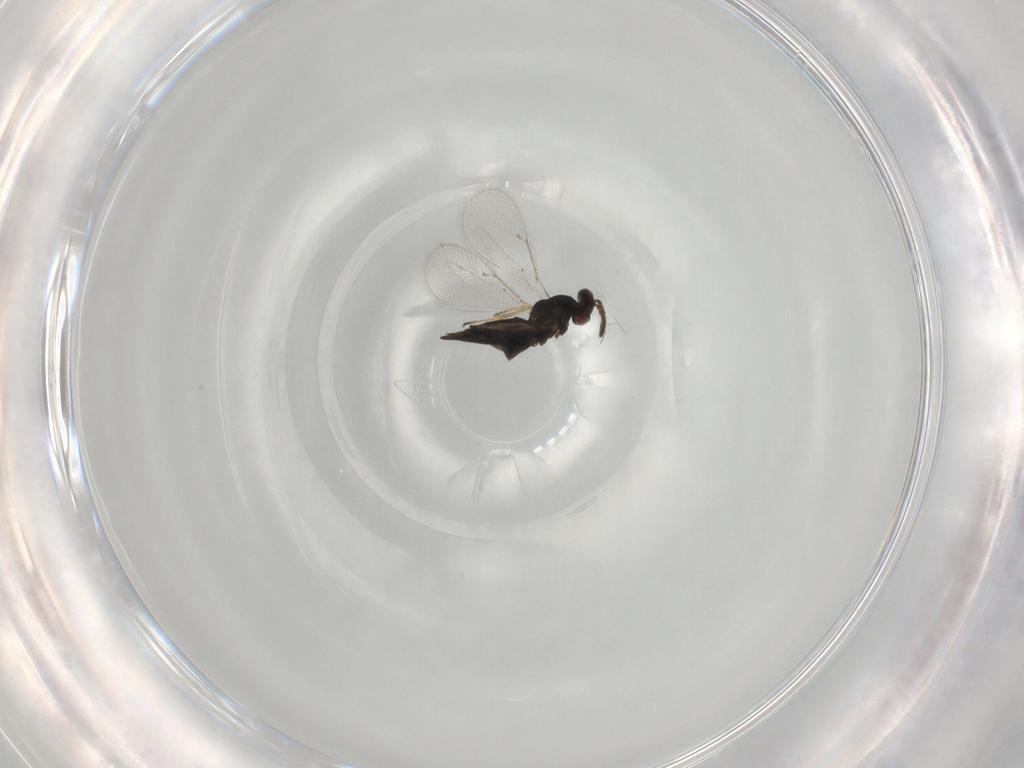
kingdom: Animalia
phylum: Arthropoda
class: Insecta
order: Hymenoptera
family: Eulophidae
